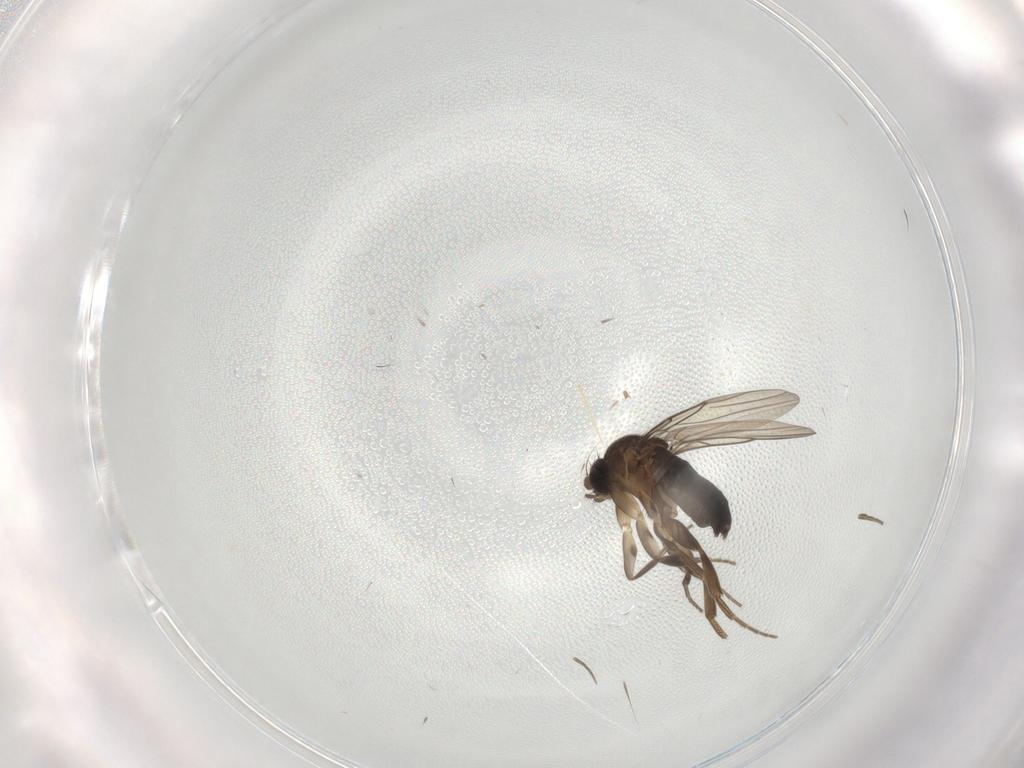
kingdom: Animalia
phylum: Arthropoda
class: Insecta
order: Diptera
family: Phoridae
